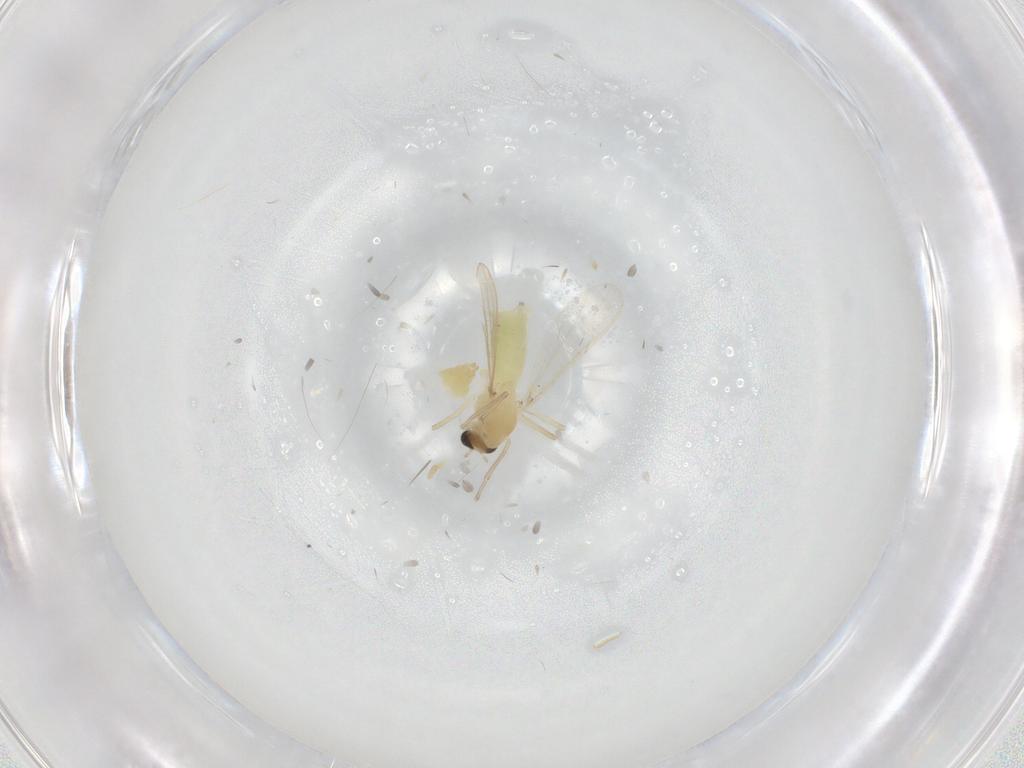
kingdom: Animalia
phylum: Arthropoda
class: Insecta
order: Diptera
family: Chironomidae
